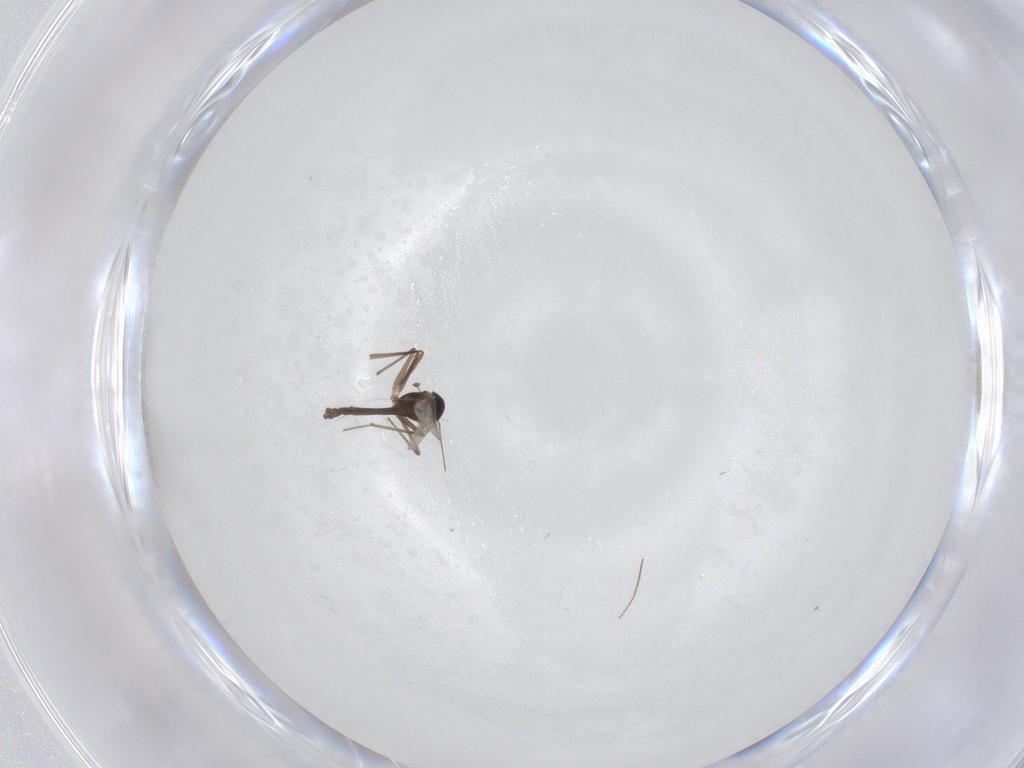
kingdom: Animalia
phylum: Arthropoda
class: Insecta
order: Diptera
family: Chironomidae
